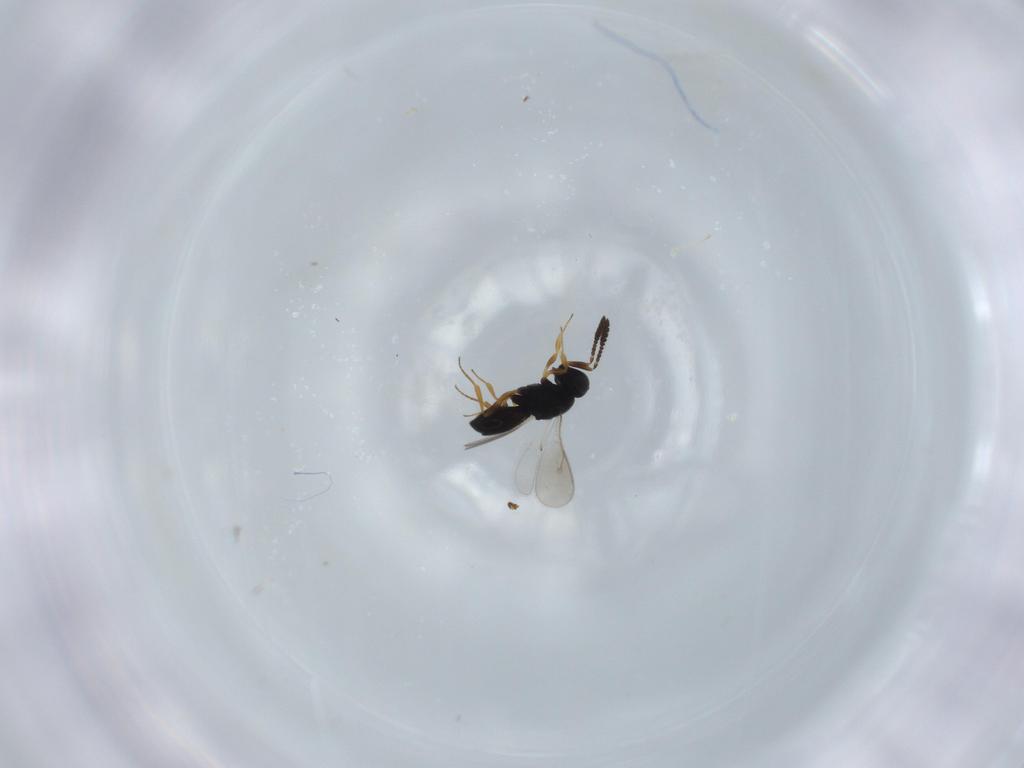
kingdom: Animalia
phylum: Arthropoda
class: Insecta
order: Hymenoptera
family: Scelionidae
